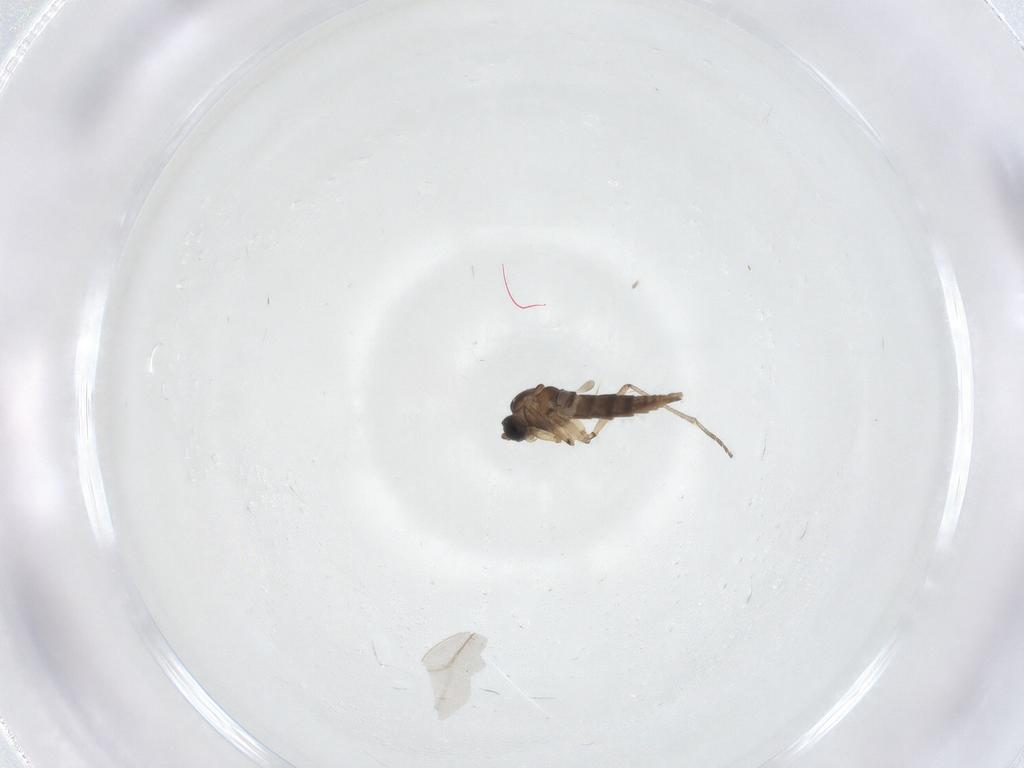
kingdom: Animalia
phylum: Arthropoda
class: Insecta
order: Diptera
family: Sciaridae
